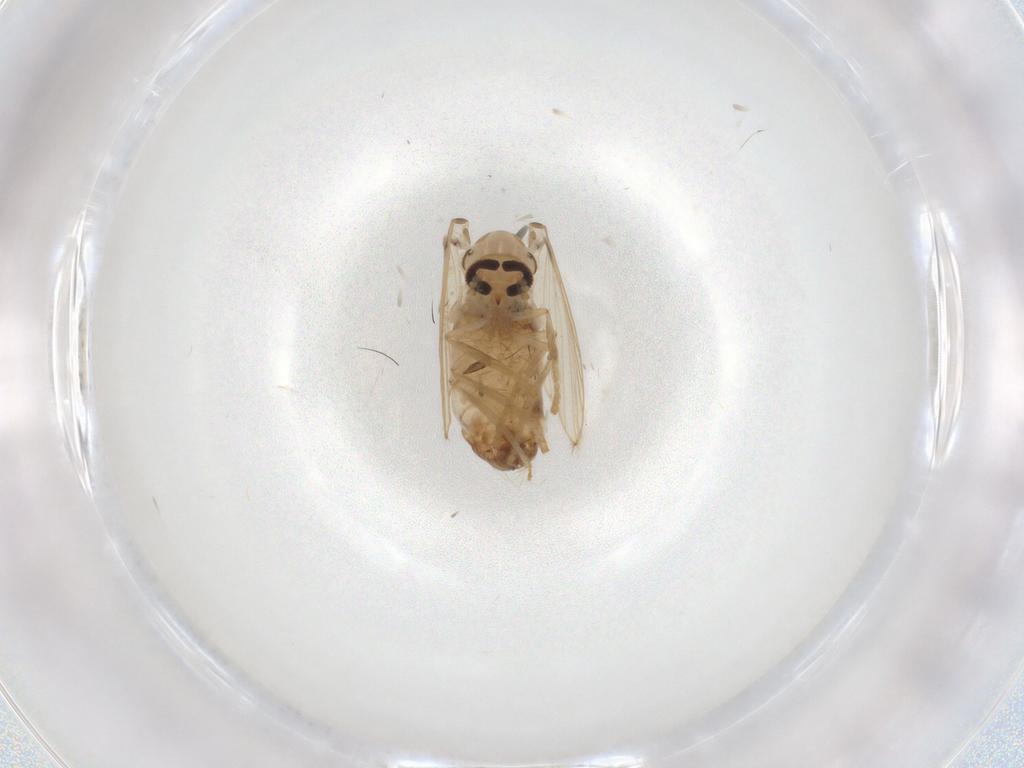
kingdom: Animalia
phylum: Arthropoda
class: Insecta
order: Diptera
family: Psychodidae
